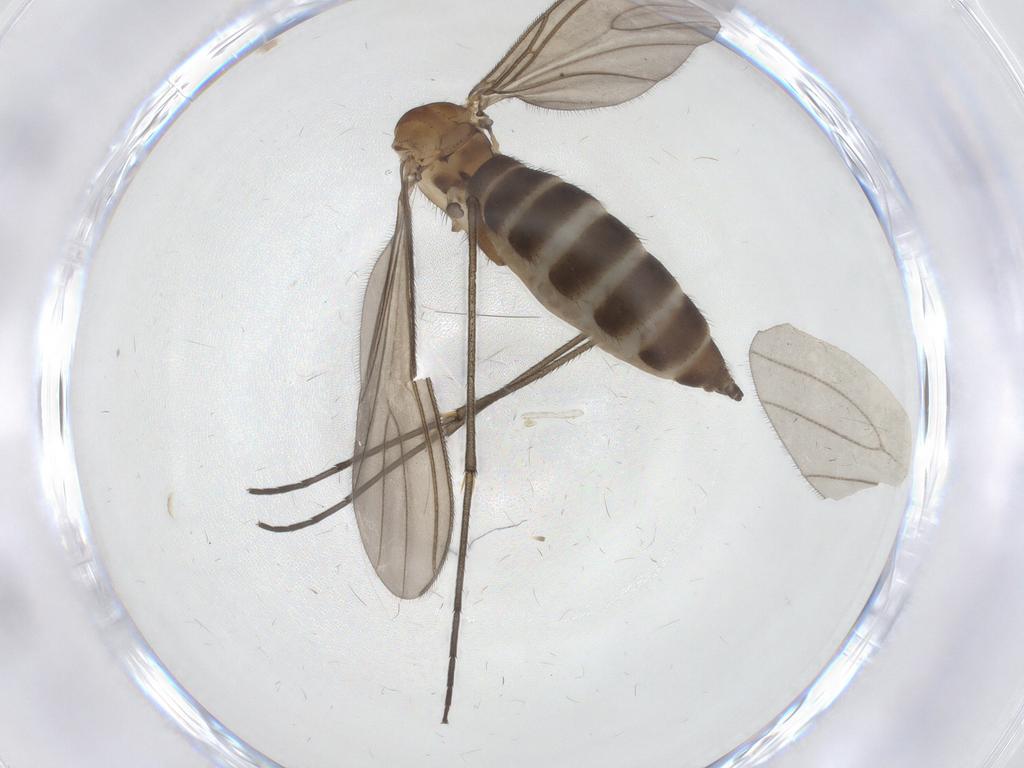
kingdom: Animalia
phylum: Arthropoda
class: Insecta
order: Diptera
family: Sciaridae
